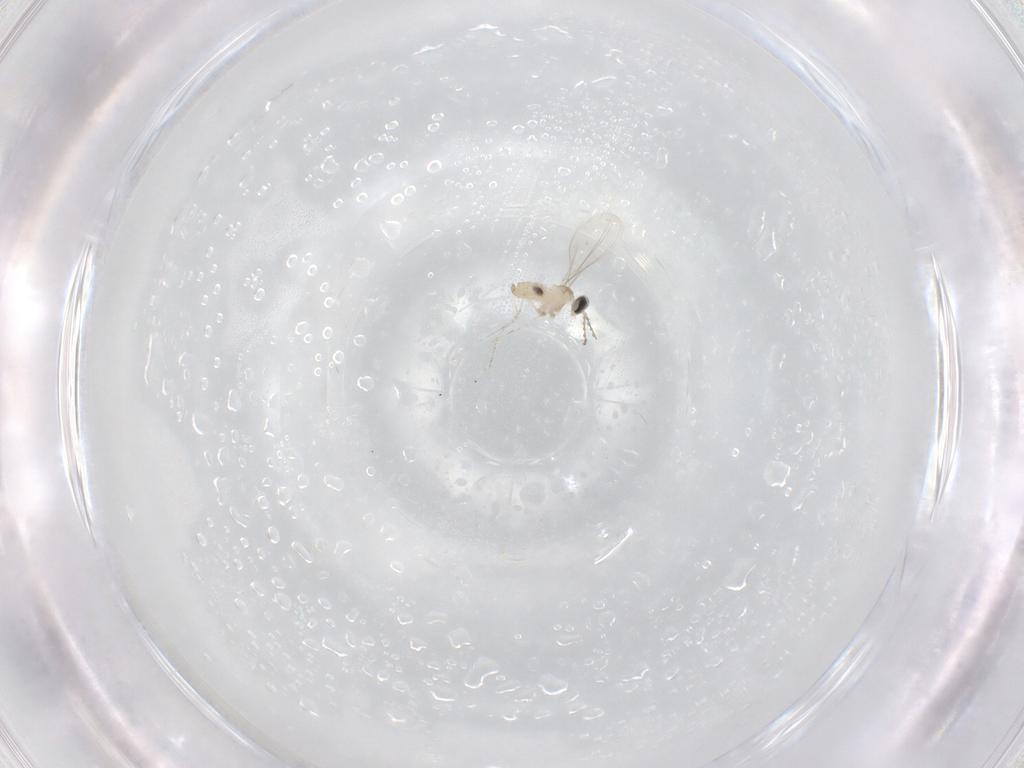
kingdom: Animalia
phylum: Arthropoda
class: Insecta
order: Diptera
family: Cecidomyiidae
